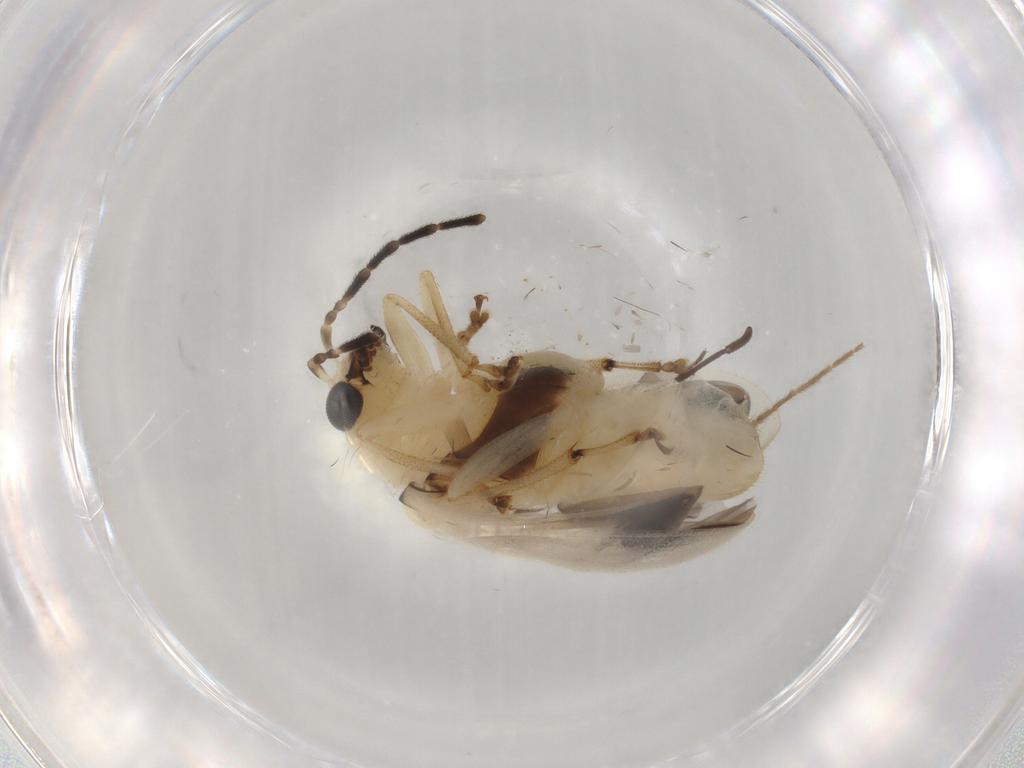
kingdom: Animalia
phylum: Arthropoda
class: Insecta
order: Coleoptera
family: Chrysomelidae
